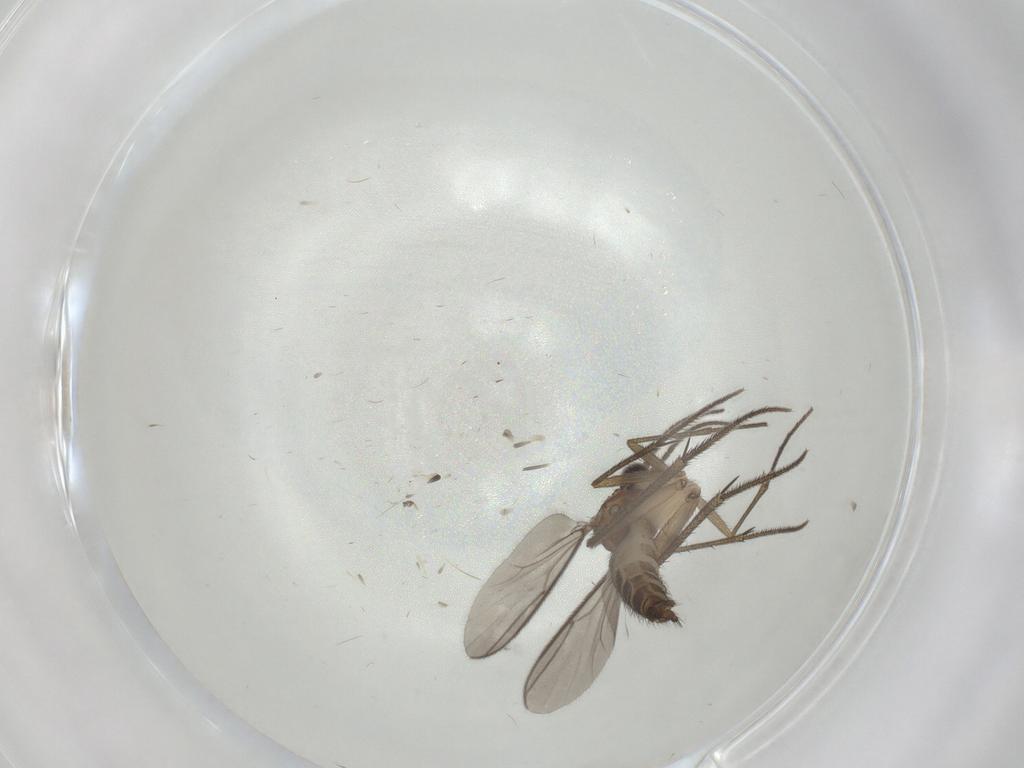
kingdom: Animalia
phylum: Arthropoda
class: Insecta
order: Diptera
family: Mycetophilidae
